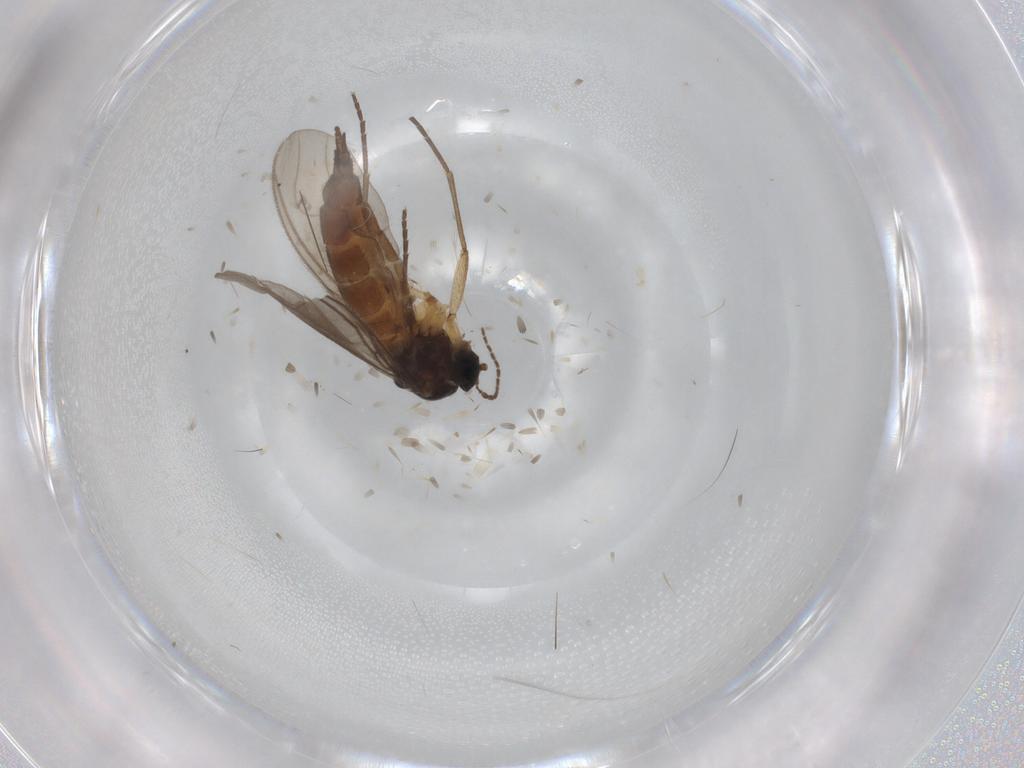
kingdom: Animalia
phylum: Arthropoda
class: Insecta
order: Diptera
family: Sciaridae
